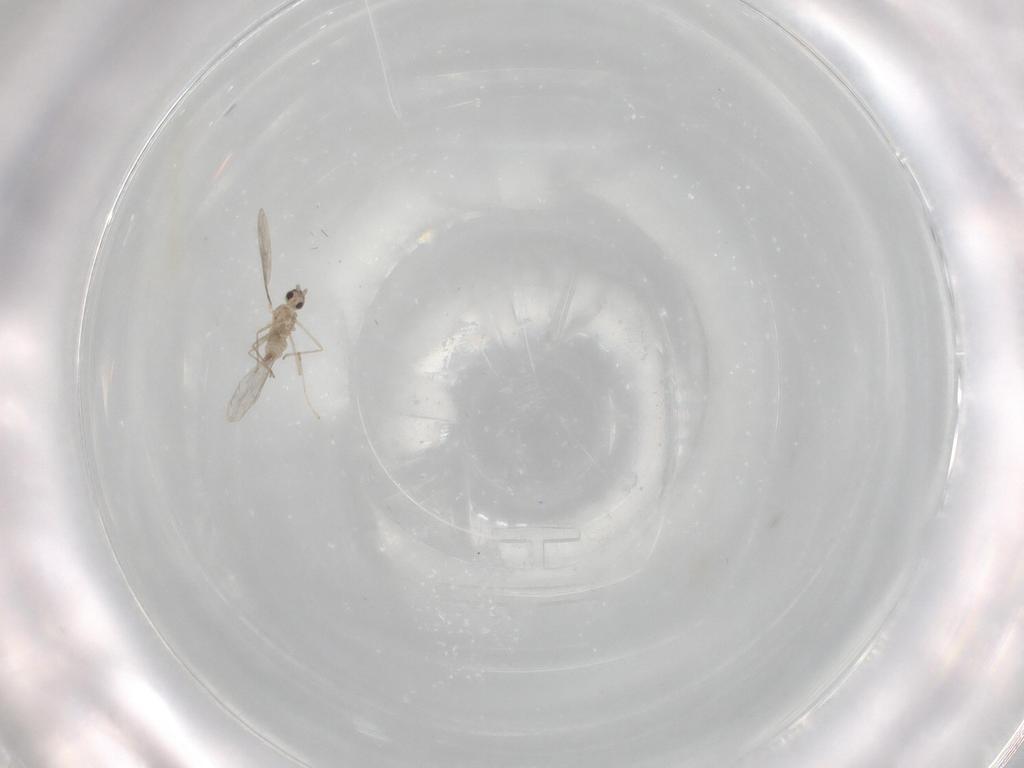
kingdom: Animalia
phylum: Arthropoda
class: Insecta
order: Diptera
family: Cecidomyiidae
